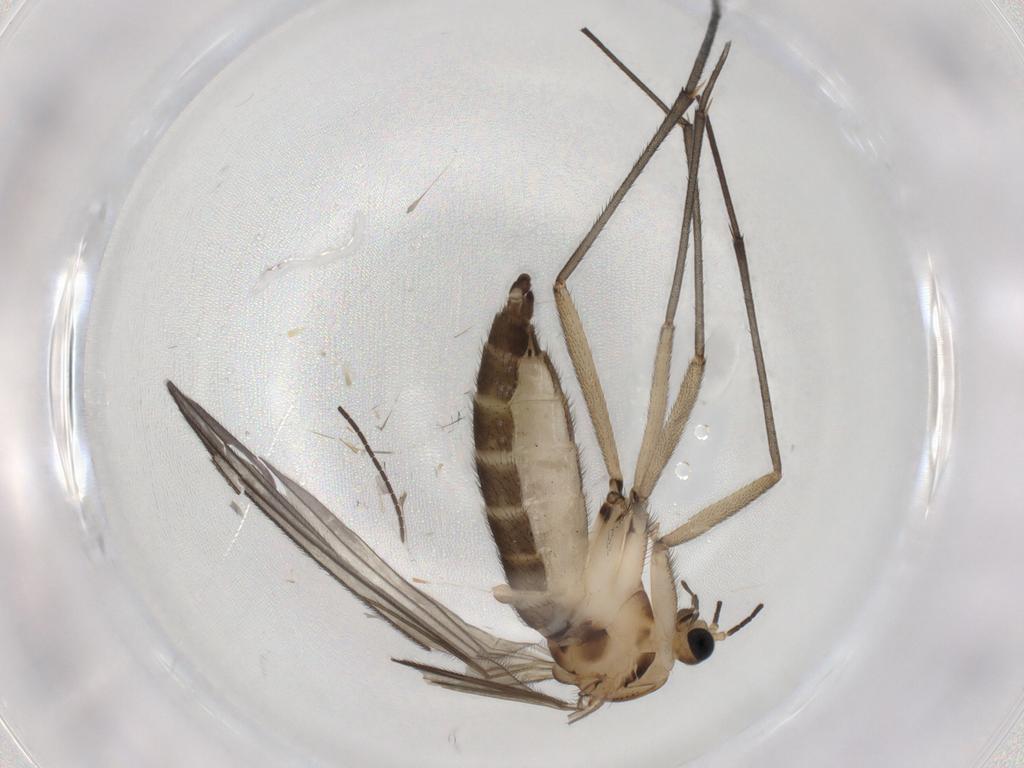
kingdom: Animalia
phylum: Arthropoda
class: Insecta
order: Diptera
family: Sciaridae
